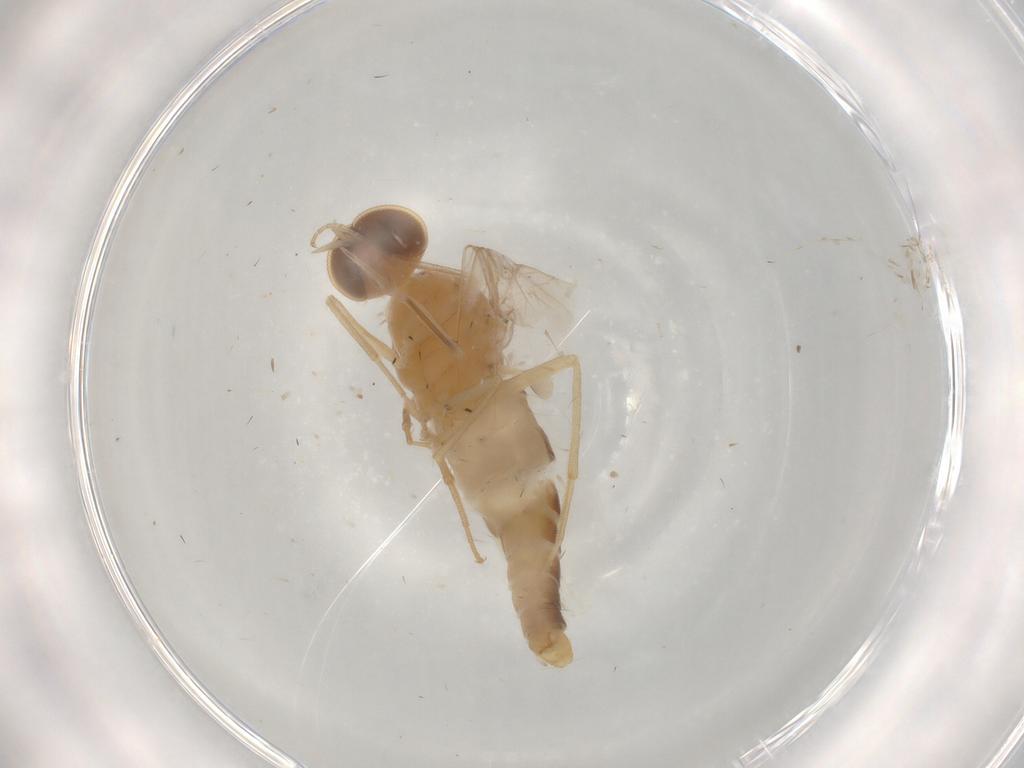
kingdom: Animalia
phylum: Arthropoda
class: Insecta
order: Diptera
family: Empididae
